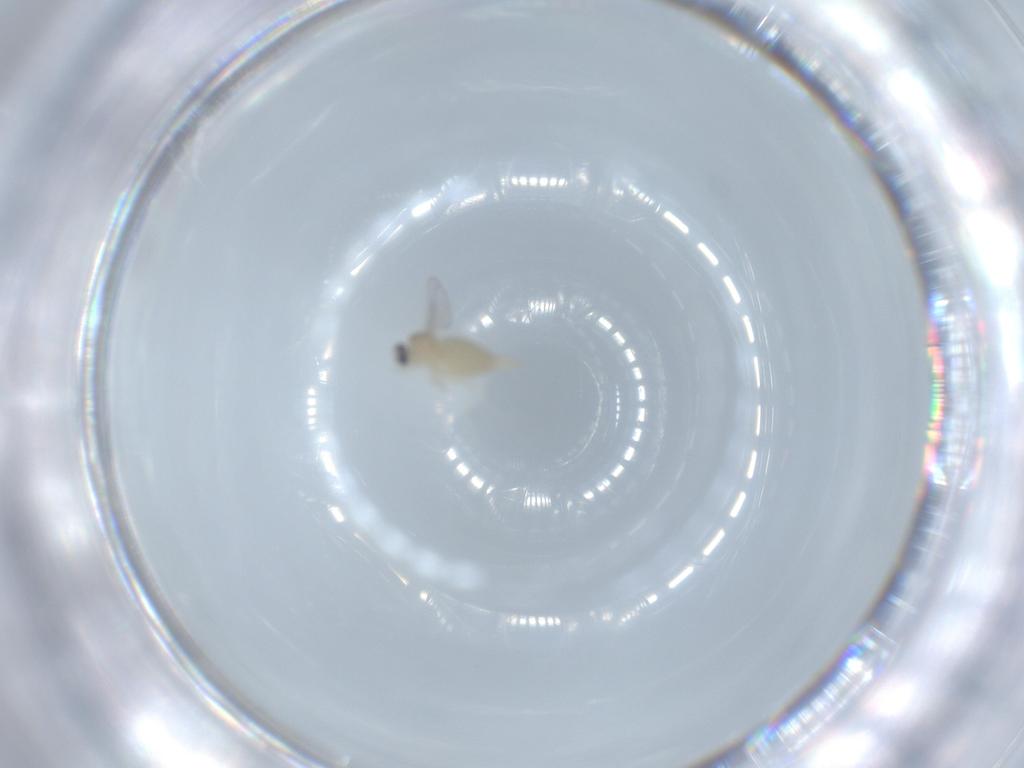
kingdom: Animalia
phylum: Arthropoda
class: Insecta
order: Diptera
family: Cecidomyiidae
